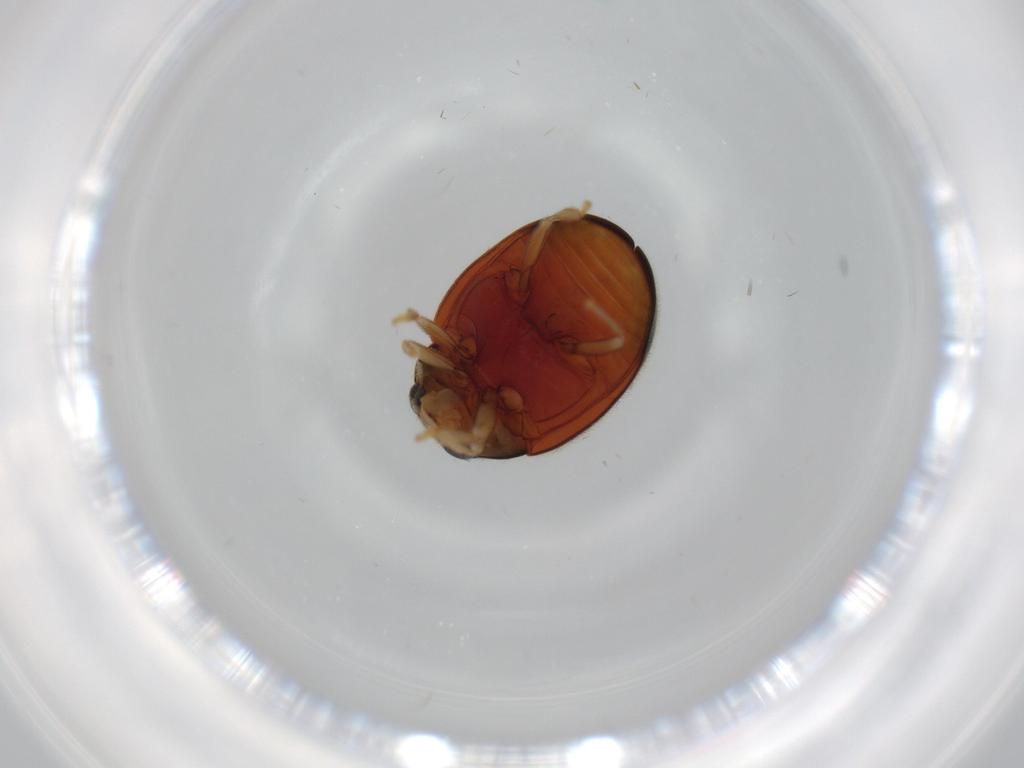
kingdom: Animalia
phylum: Arthropoda
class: Insecta
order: Coleoptera
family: Coccinellidae
